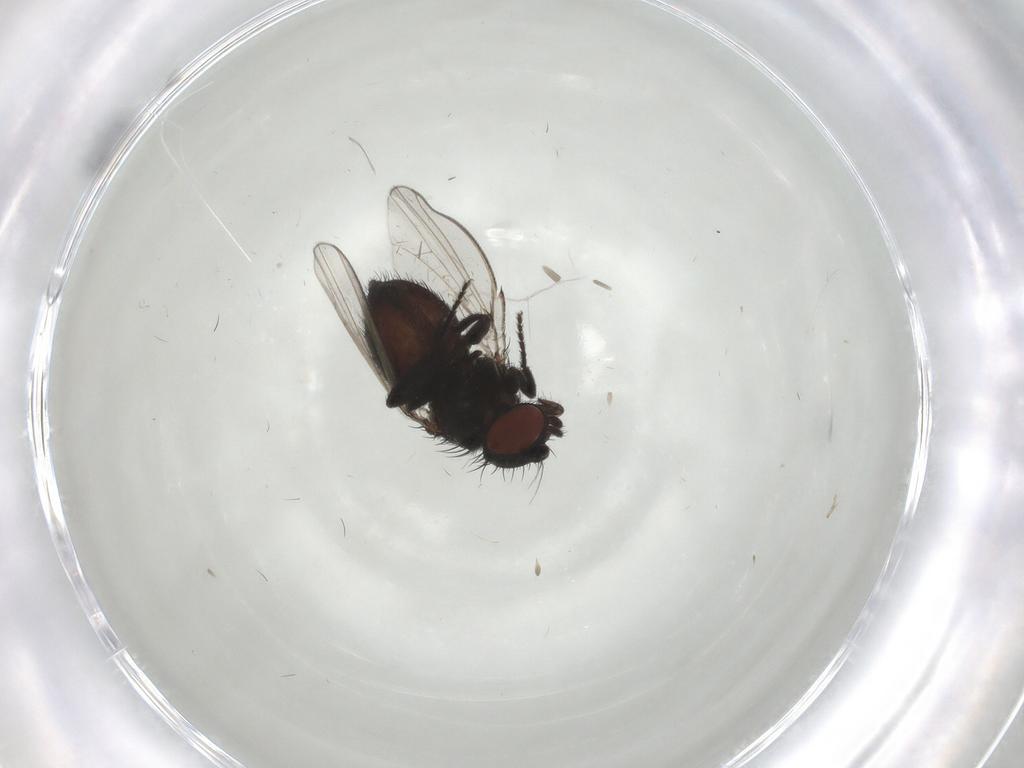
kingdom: Animalia
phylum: Arthropoda
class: Insecta
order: Diptera
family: Milichiidae
